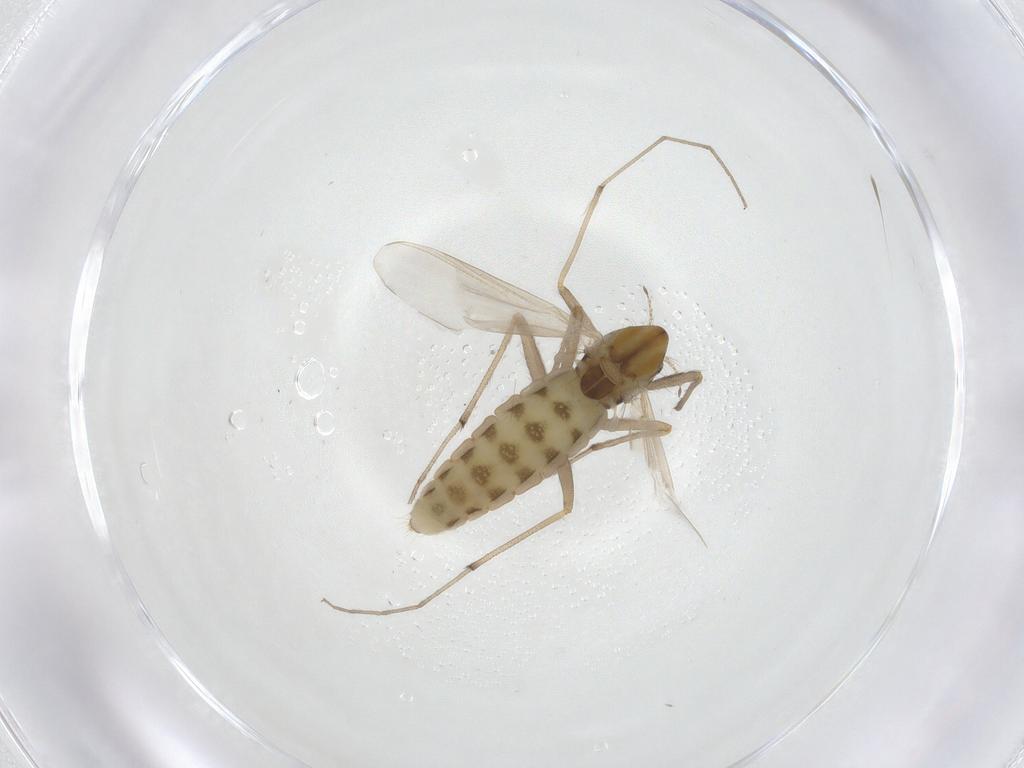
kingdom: Animalia
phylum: Arthropoda
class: Insecta
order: Diptera
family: Chironomidae
